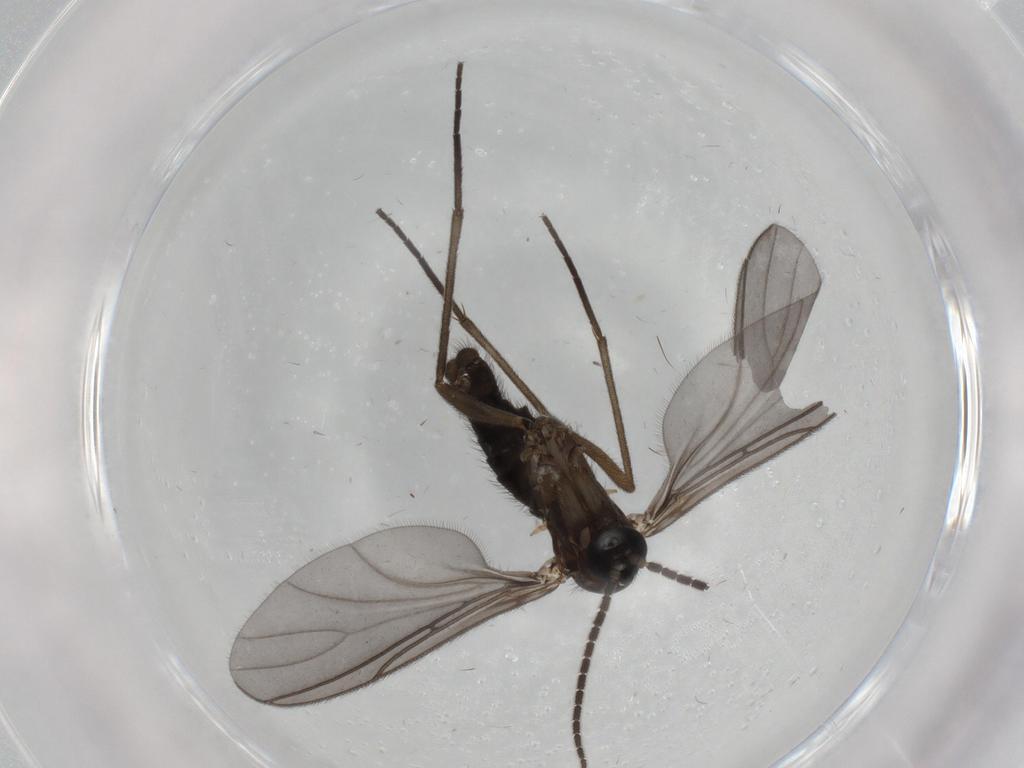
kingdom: Animalia
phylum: Arthropoda
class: Insecta
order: Diptera
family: Sciaridae
